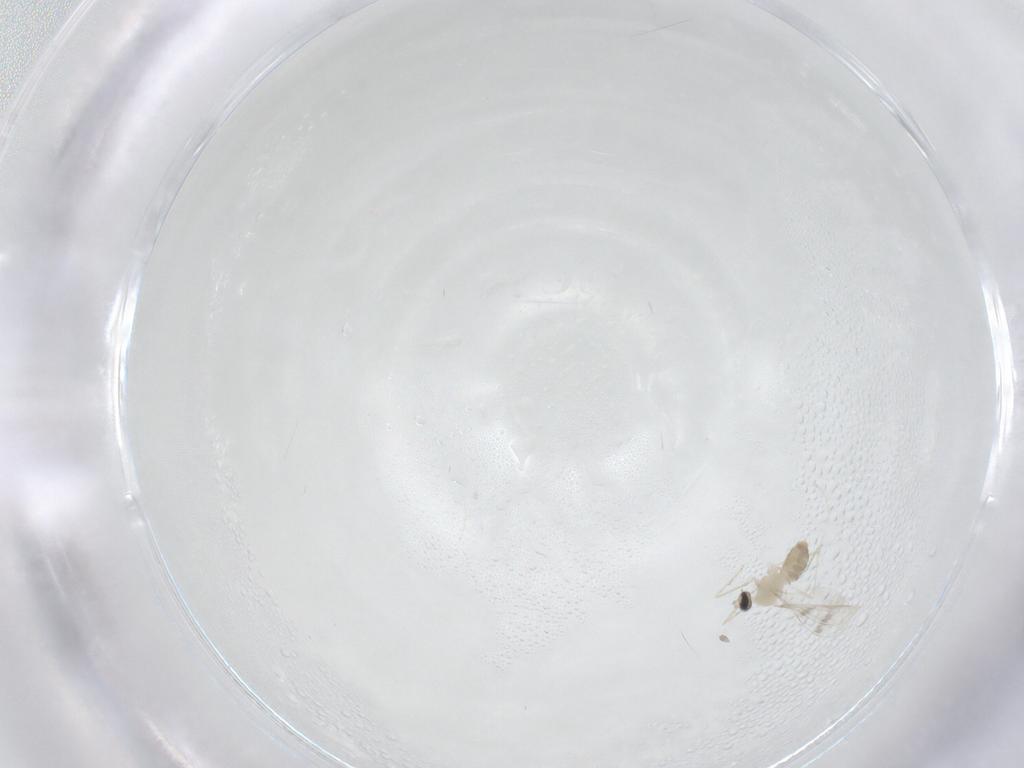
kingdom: Animalia
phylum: Arthropoda
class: Insecta
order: Diptera
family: Cecidomyiidae
